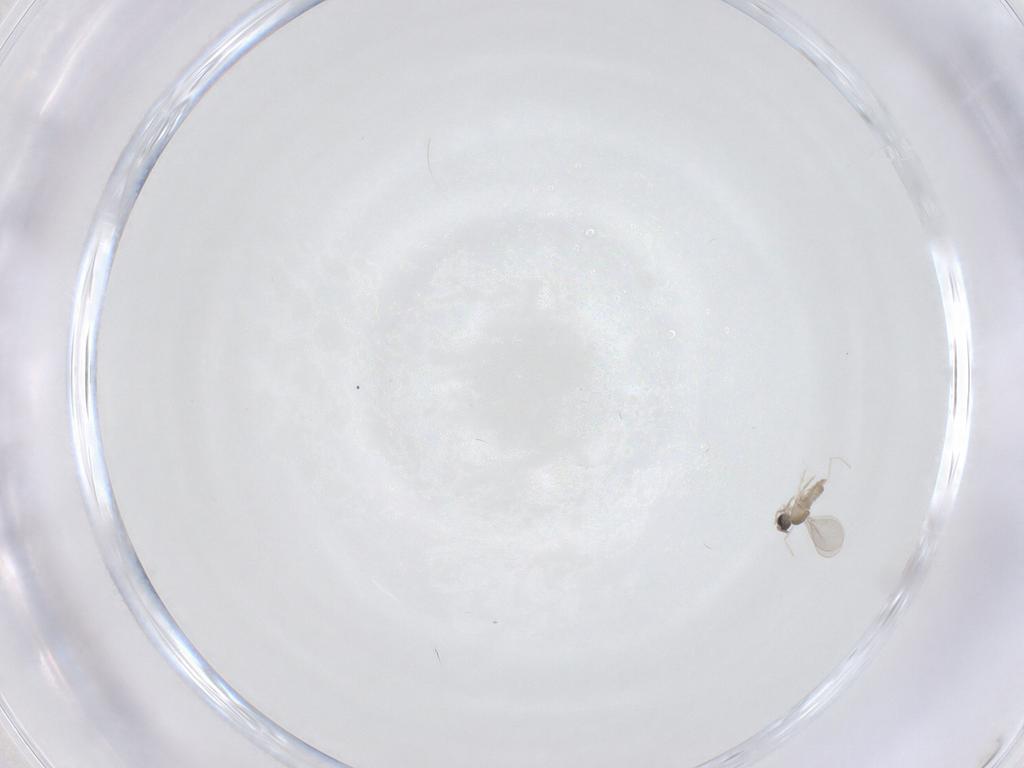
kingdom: Animalia
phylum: Arthropoda
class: Insecta
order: Diptera
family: Cecidomyiidae
